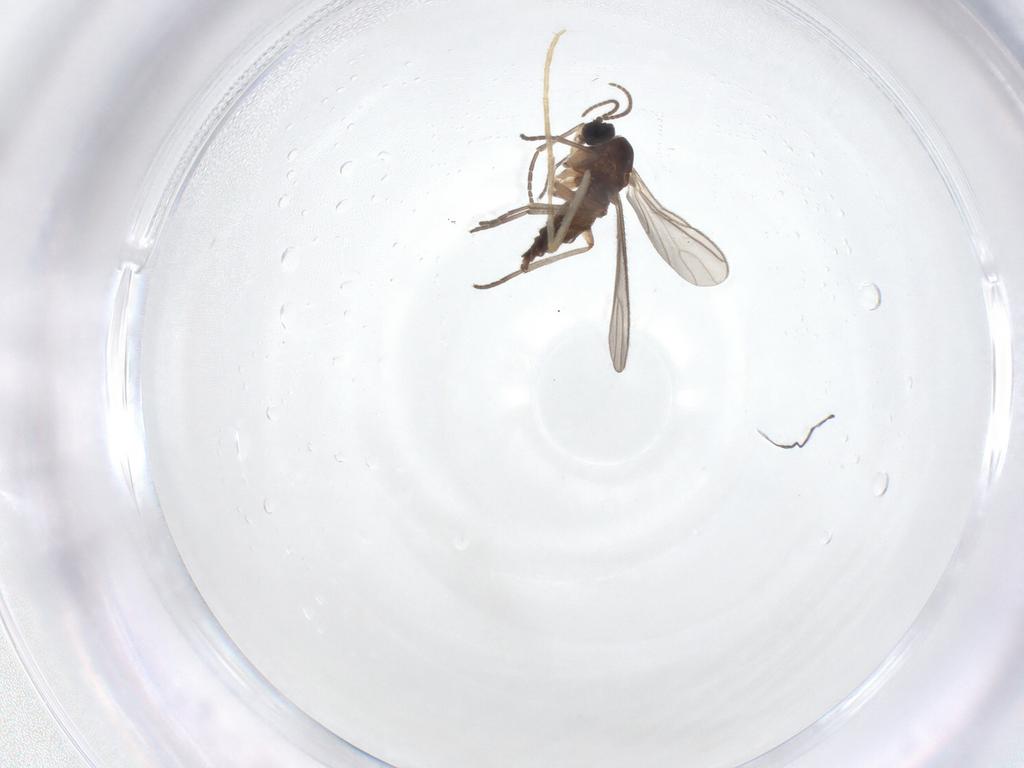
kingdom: Animalia
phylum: Arthropoda
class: Insecta
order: Diptera
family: Sciaridae
